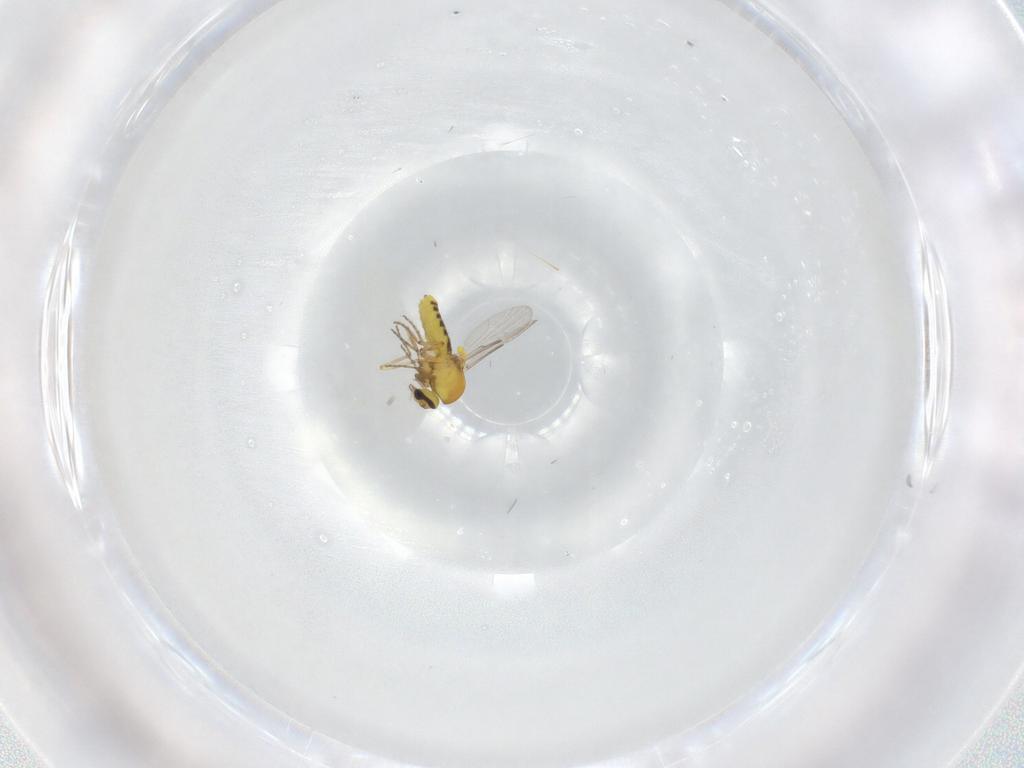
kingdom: Animalia
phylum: Arthropoda
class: Insecta
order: Diptera
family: Ceratopogonidae
